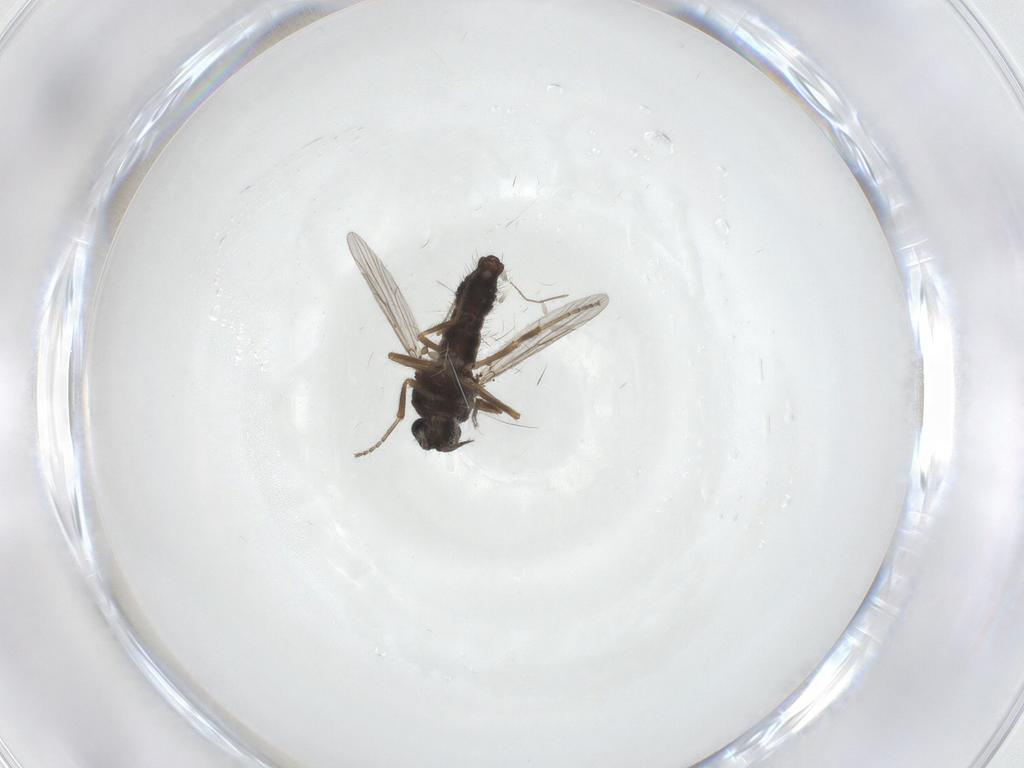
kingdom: Animalia
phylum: Arthropoda
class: Insecta
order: Diptera
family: Ceratopogonidae
